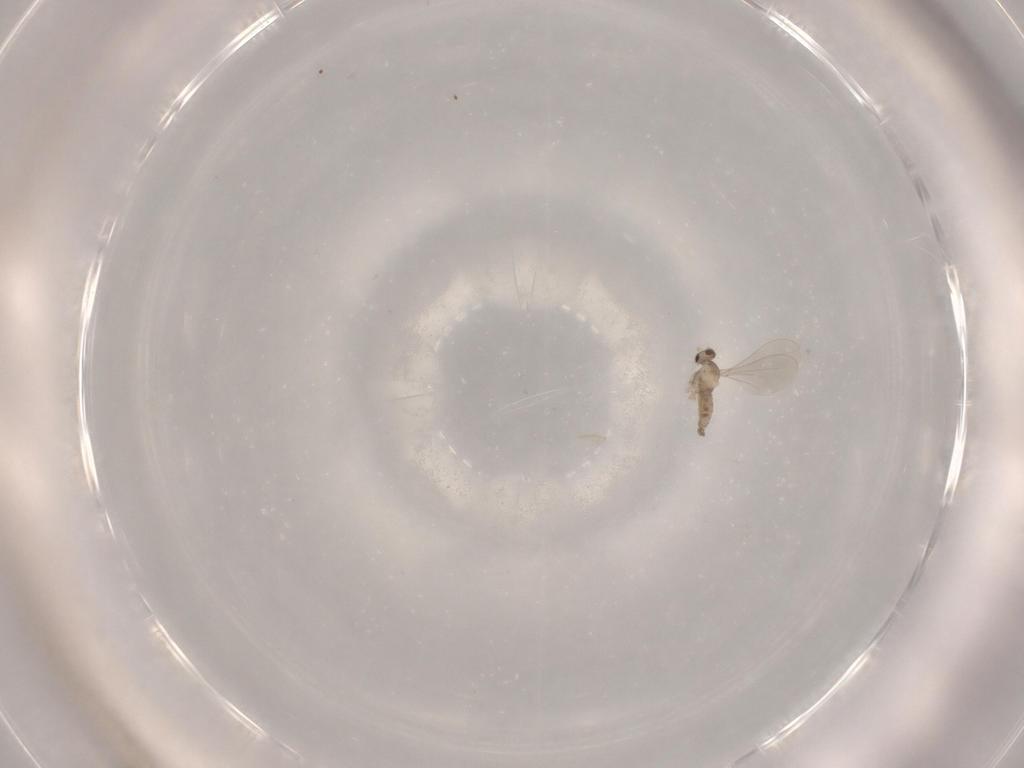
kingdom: Animalia
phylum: Arthropoda
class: Insecta
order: Diptera
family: Cecidomyiidae
